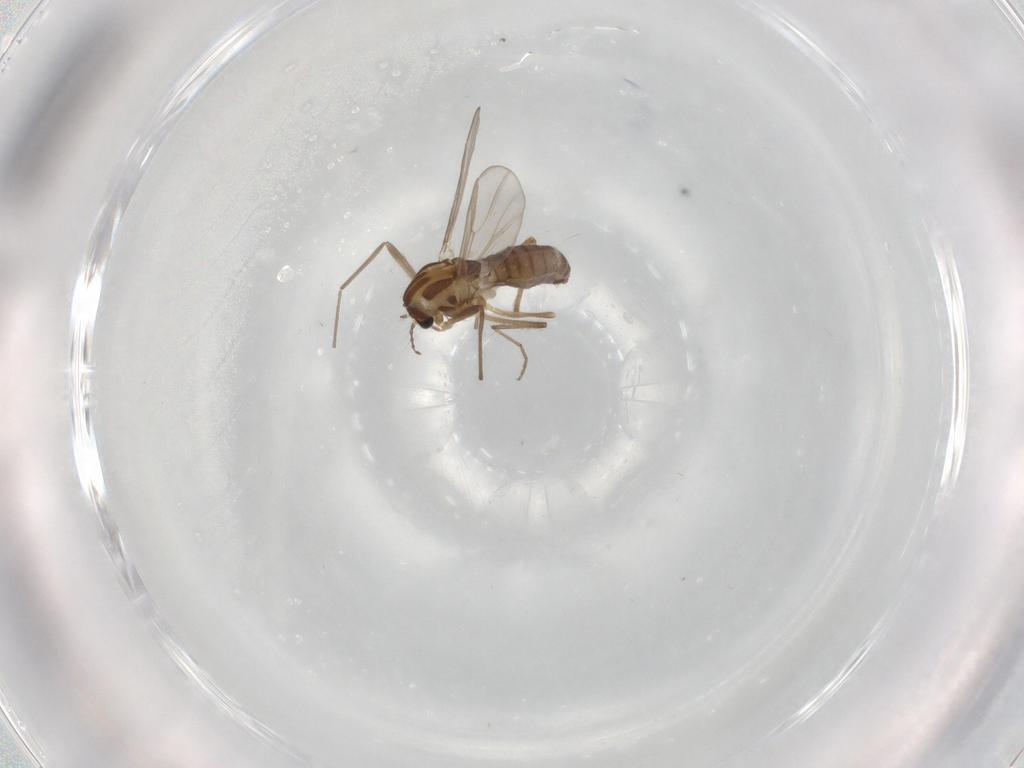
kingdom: Animalia
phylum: Arthropoda
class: Insecta
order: Diptera
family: Chironomidae
